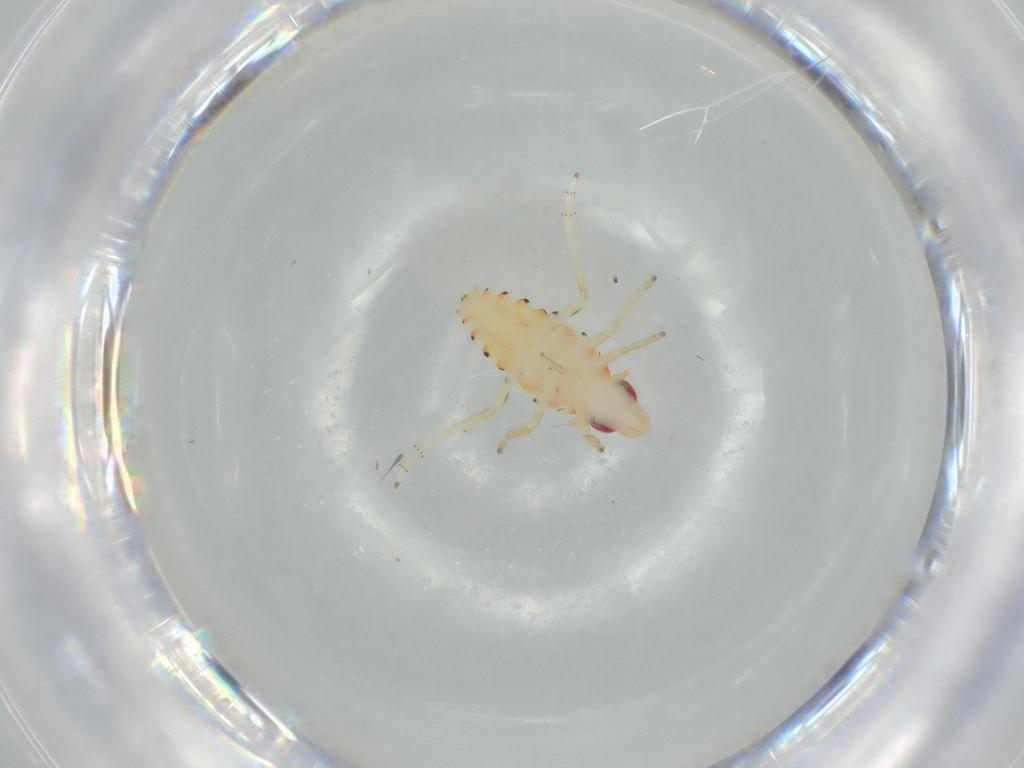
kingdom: Animalia
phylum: Arthropoda
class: Insecta
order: Hemiptera
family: Tropiduchidae
